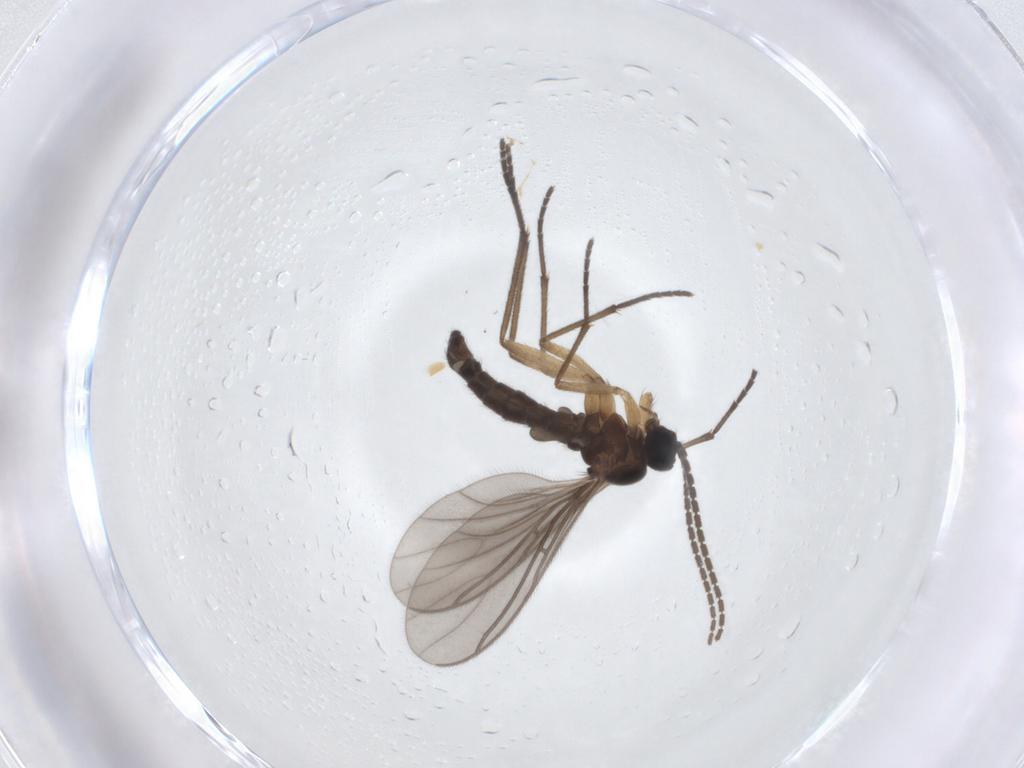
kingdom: Animalia
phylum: Arthropoda
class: Insecta
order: Diptera
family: Sciaridae
